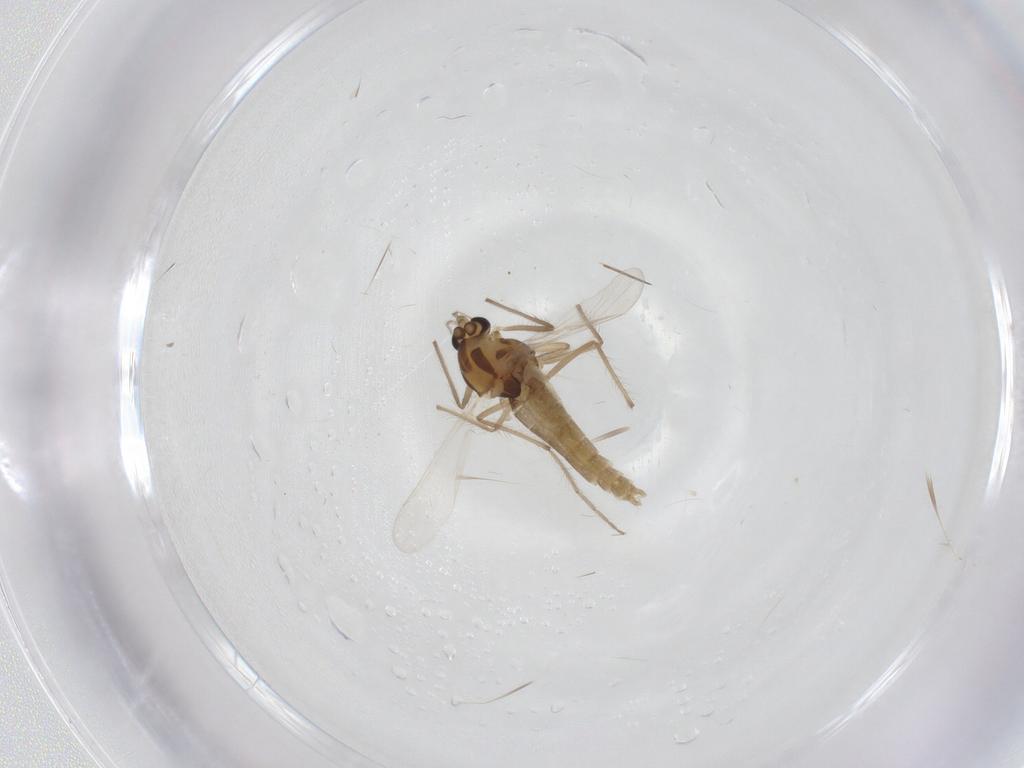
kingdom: Animalia
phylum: Arthropoda
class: Insecta
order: Diptera
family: Chironomidae
